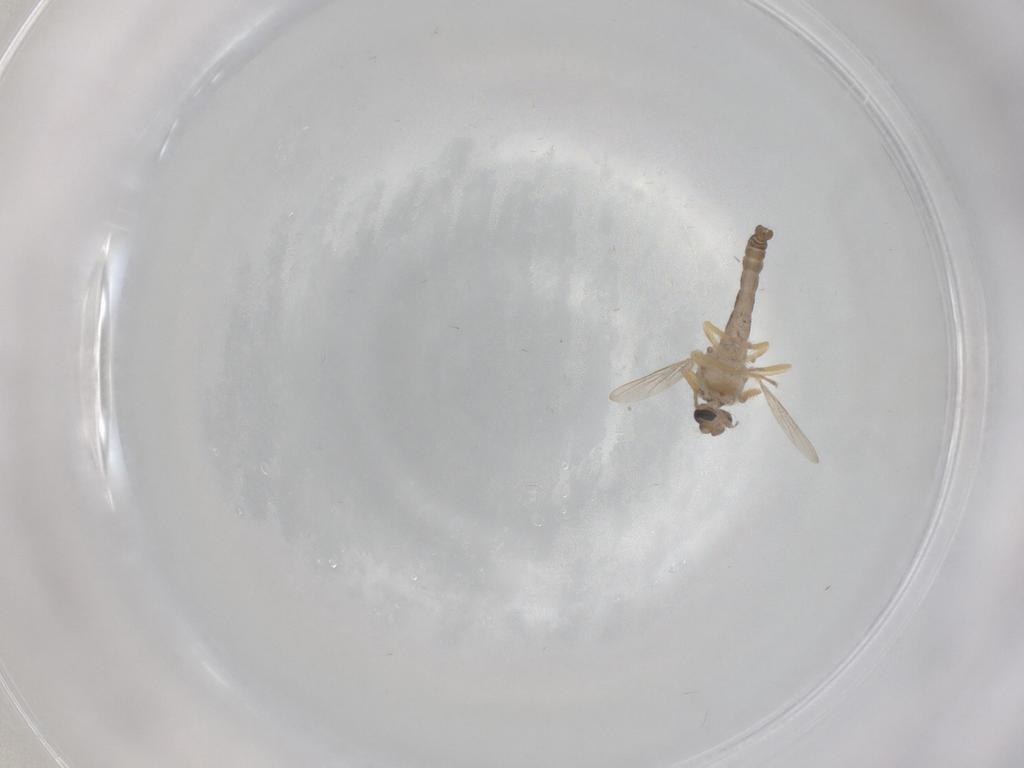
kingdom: Animalia
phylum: Arthropoda
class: Insecta
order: Diptera
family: Ceratopogonidae
